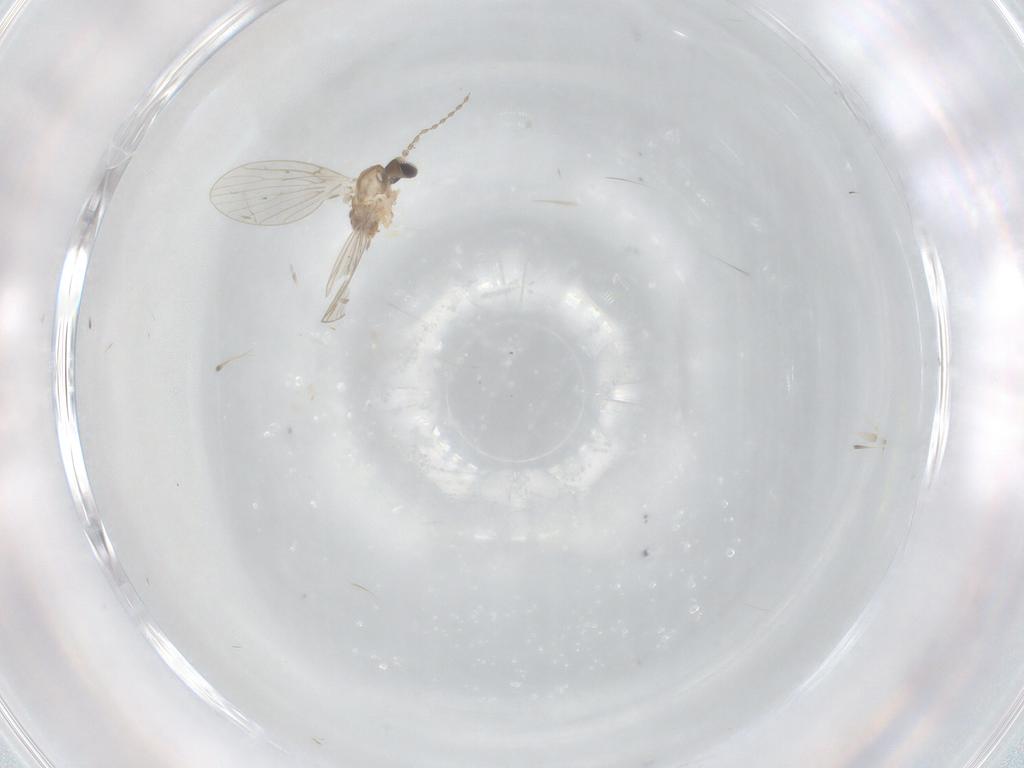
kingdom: Animalia
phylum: Arthropoda
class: Insecta
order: Diptera
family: Psychodidae
